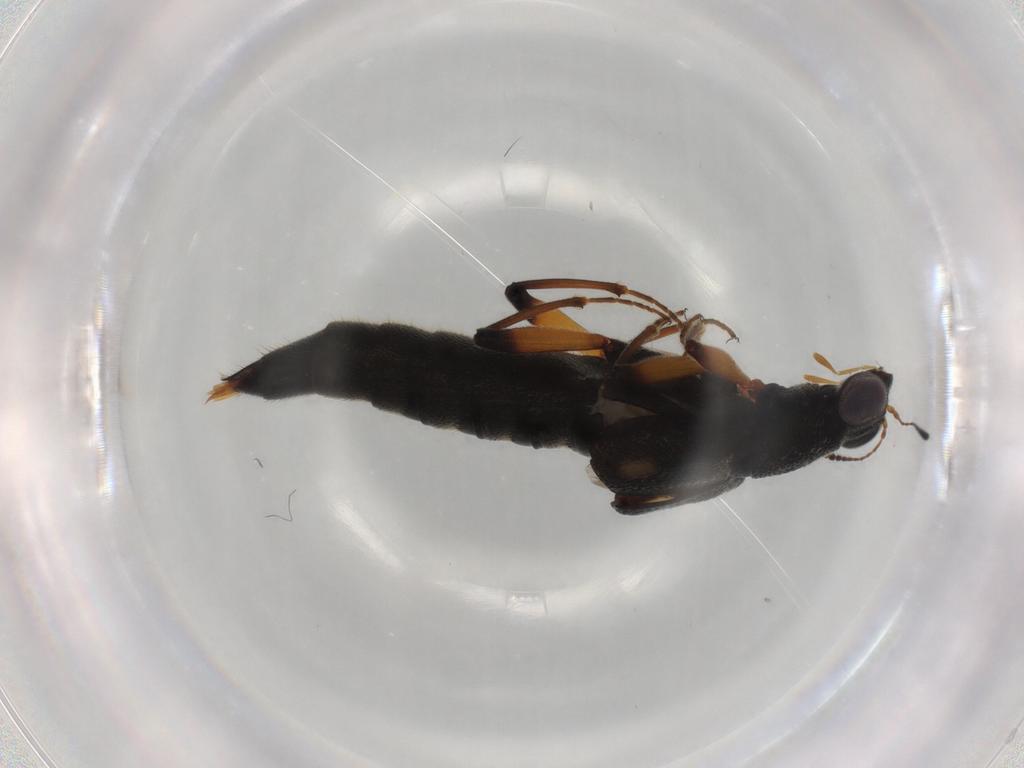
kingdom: Animalia
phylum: Arthropoda
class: Insecta
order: Coleoptera
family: Staphylinidae
